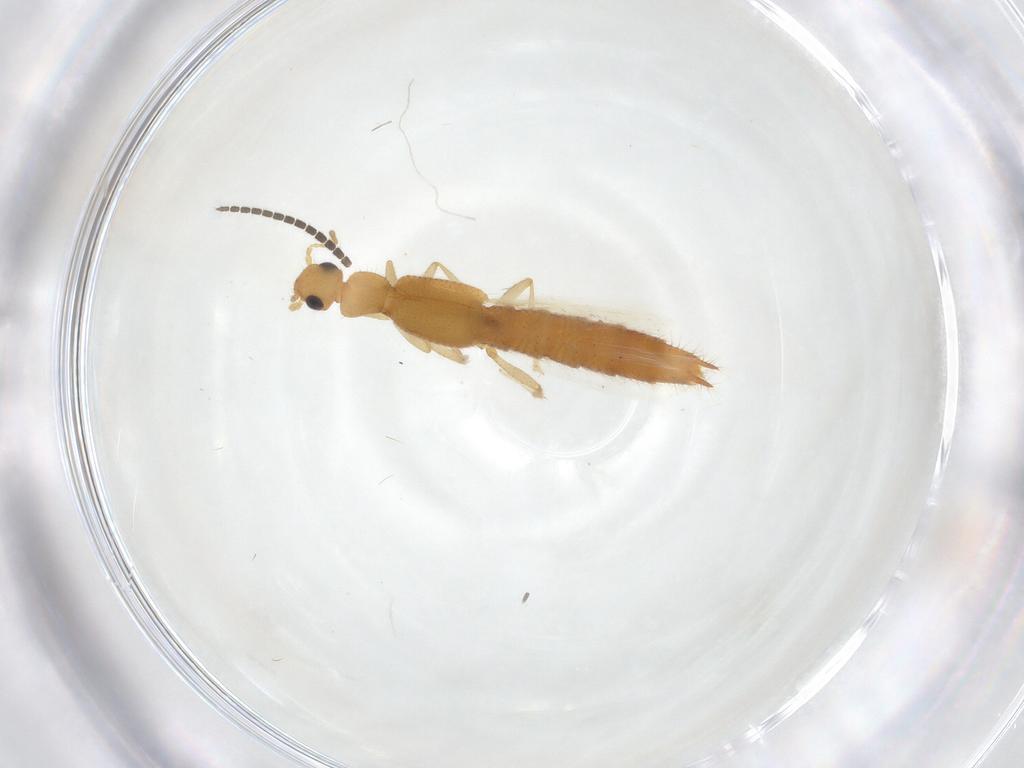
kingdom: Animalia
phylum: Arthropoda
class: Insecta
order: Coleoptera
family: Staphylinidae
